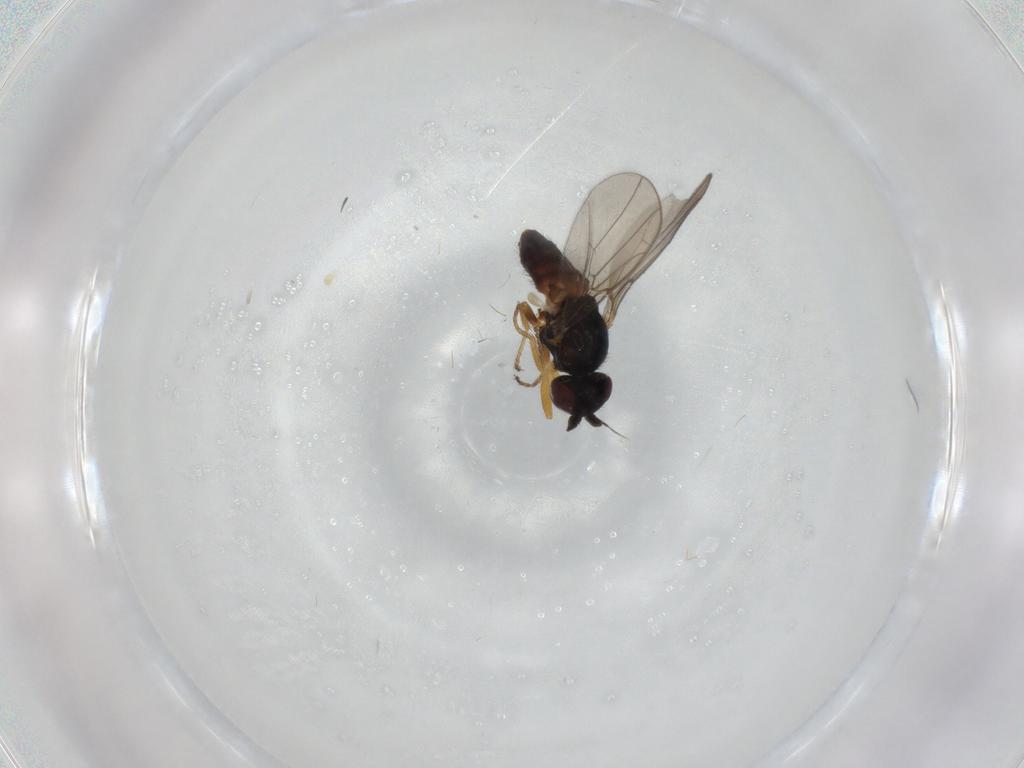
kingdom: Animalia
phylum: Arthropoda
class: Insecta
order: Diptera
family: Chloropidae
